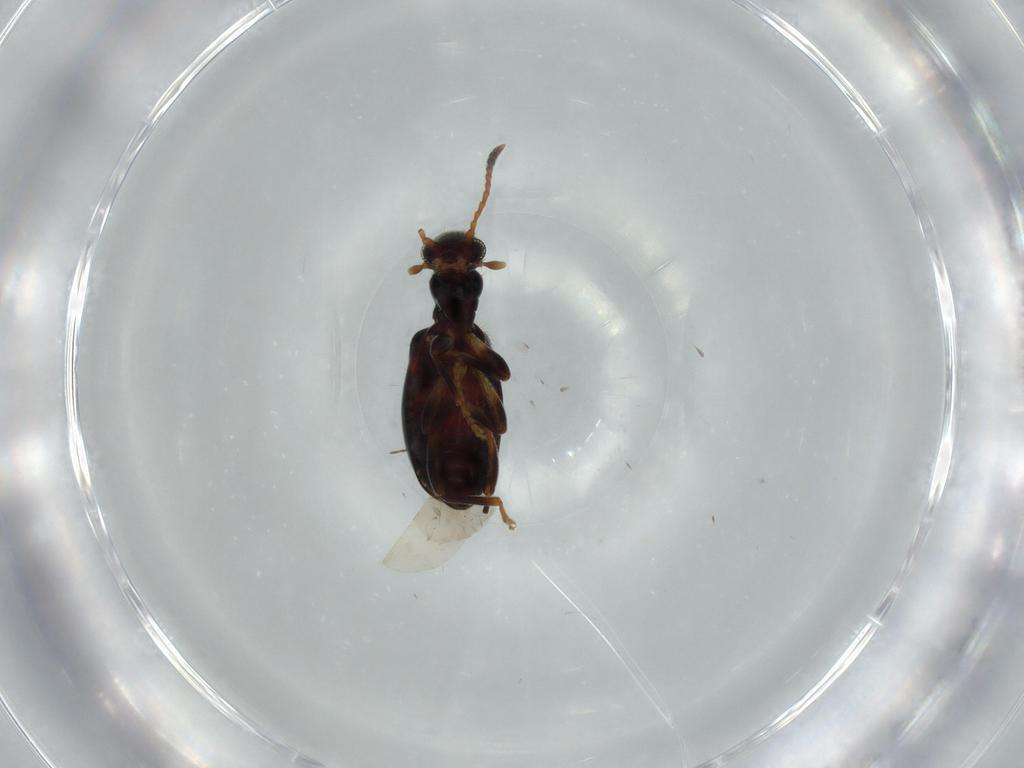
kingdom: Animalia
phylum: Arthropoda
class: Insecta
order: Coleoptera
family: Anthicidae
